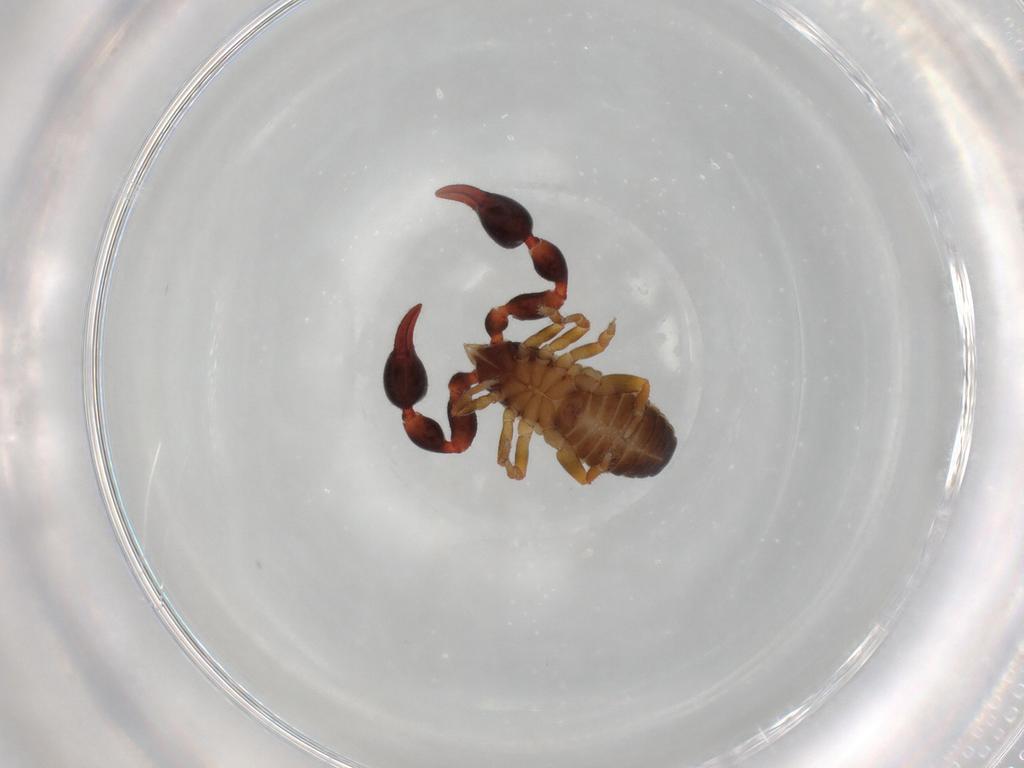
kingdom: Animalia
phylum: Arthropoda
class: Arachnida
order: Pseudoscorpiones
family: Chernetidae
